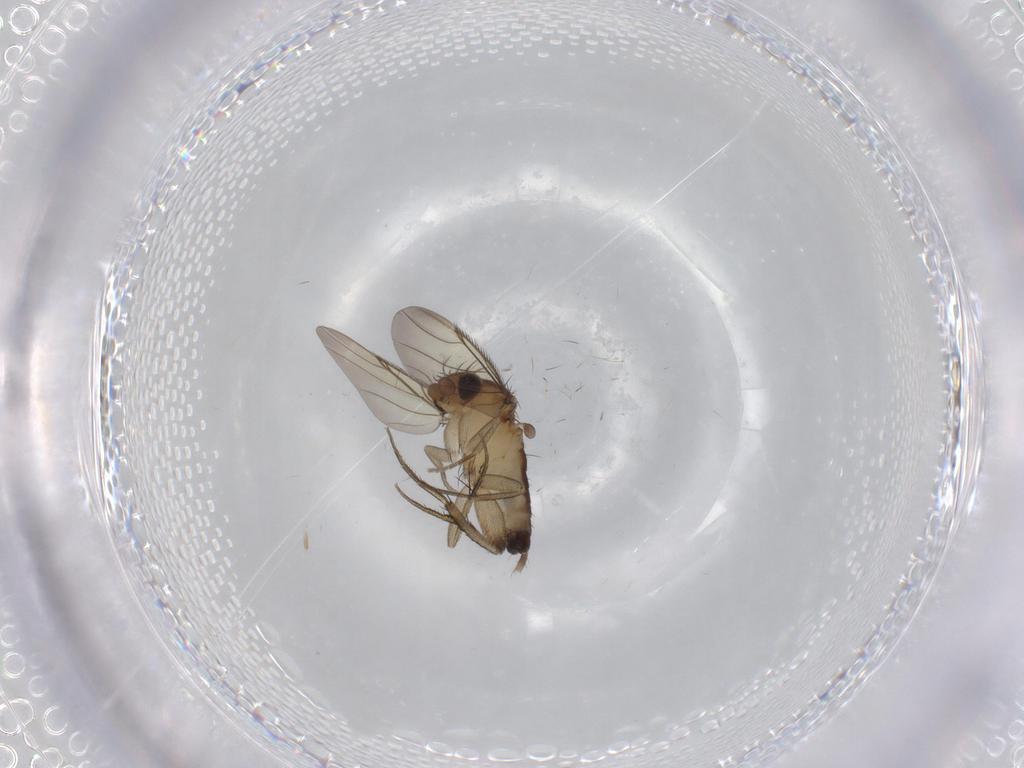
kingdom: Animalia
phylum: Arthropoda
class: Insecta
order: Diptera
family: Phoridae
